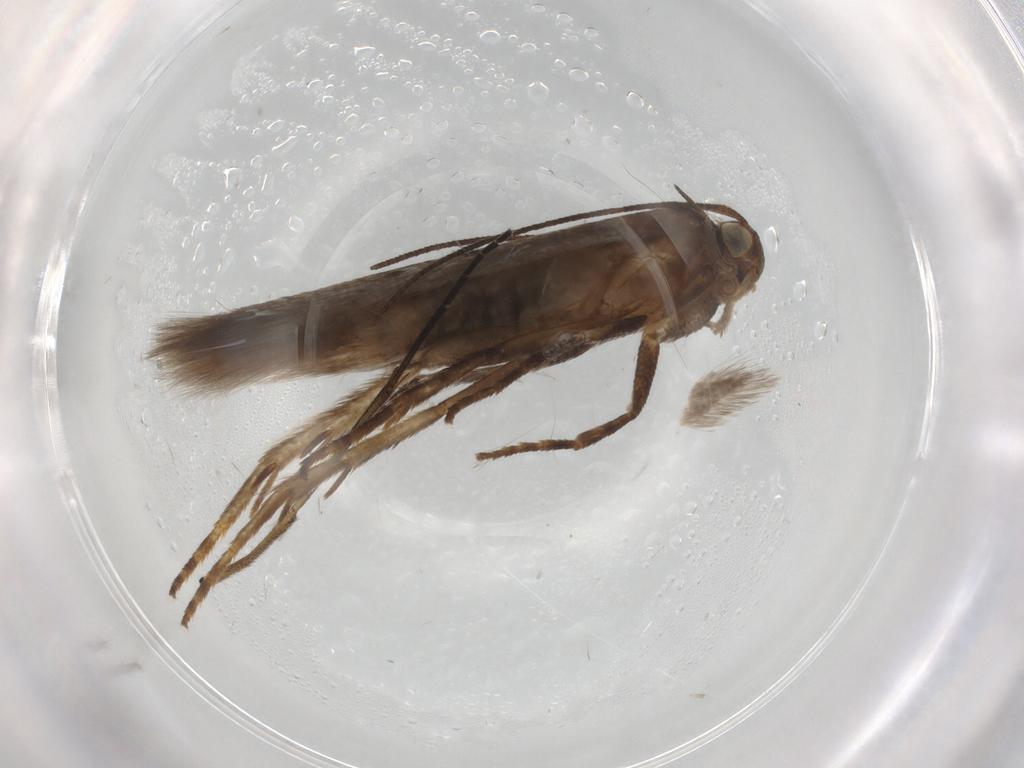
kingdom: Animalia
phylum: Arthropoda
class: Insecta
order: Lepidoptera
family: Gelechiidae
